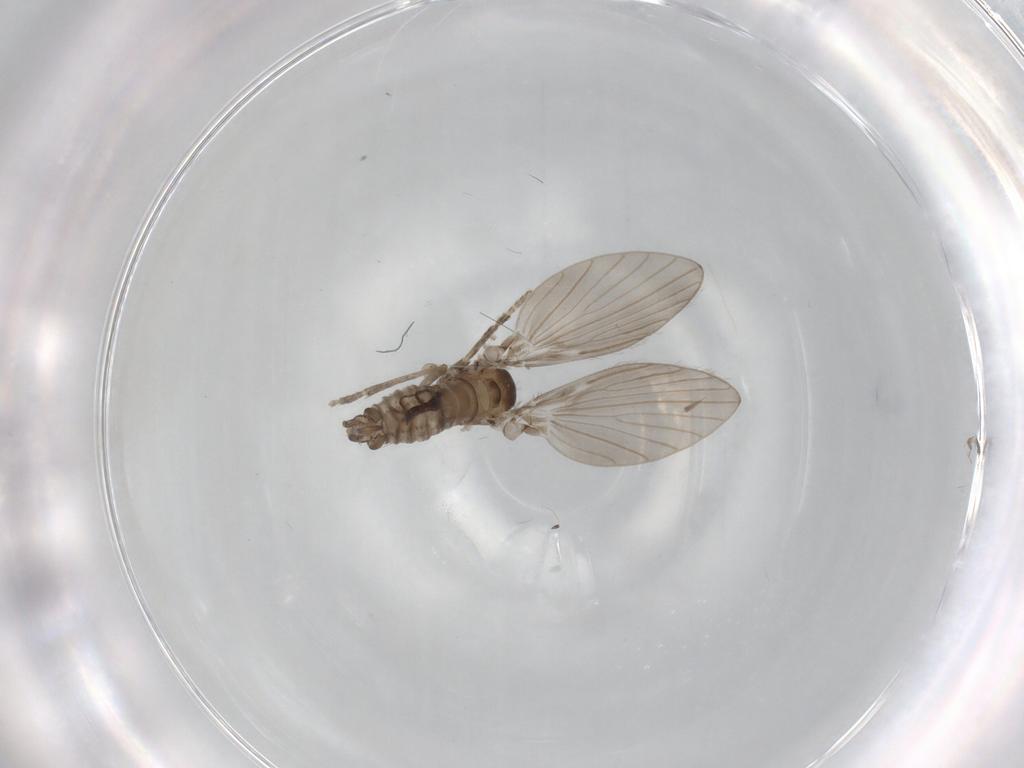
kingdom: Animalia
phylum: Arthropoda
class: Insecta
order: Diptera
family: Psychodidae
